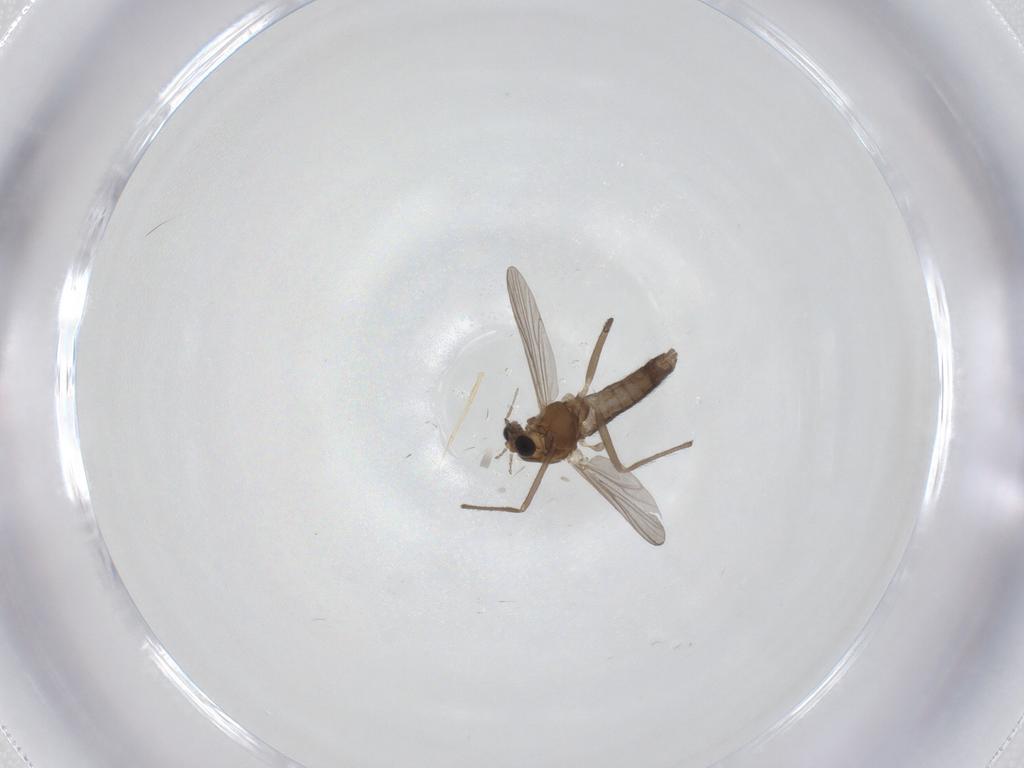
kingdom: Animalia
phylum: Arthropoda
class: Insecta
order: Diptera
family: Chironomidae
